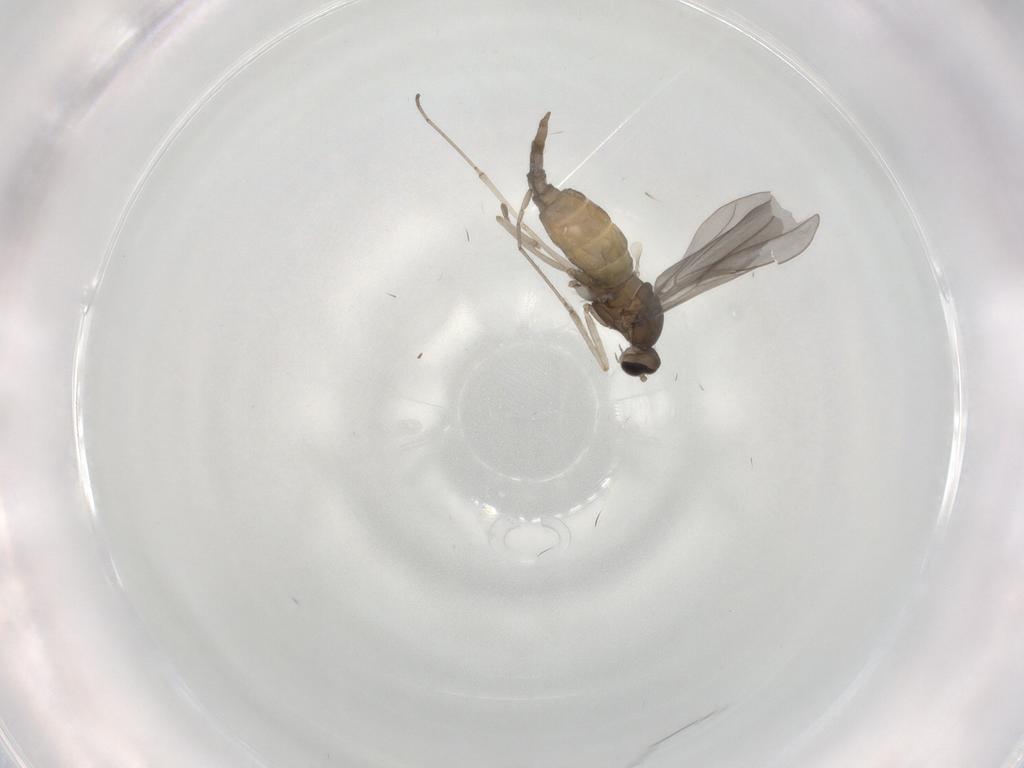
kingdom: Animalia
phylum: Arthropoda
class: Insecta
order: Diptera
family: Cecidomyiidae
